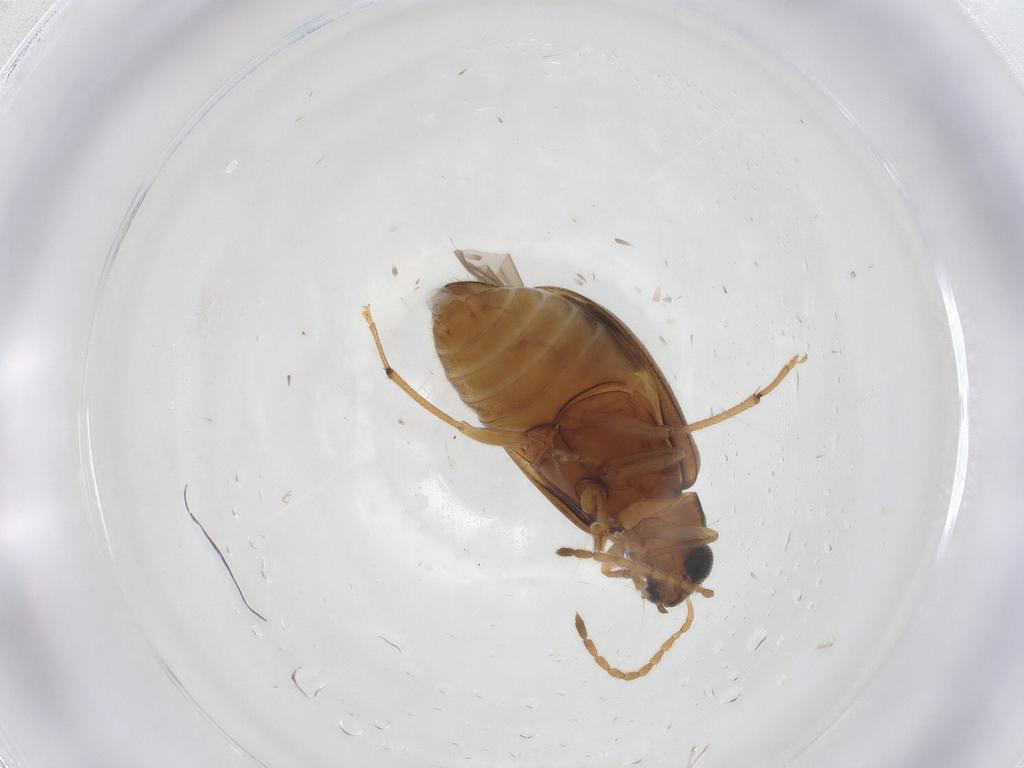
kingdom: Animalia
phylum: Arthropoda
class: Insecta
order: Coleoptera
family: Chrysomelidae
